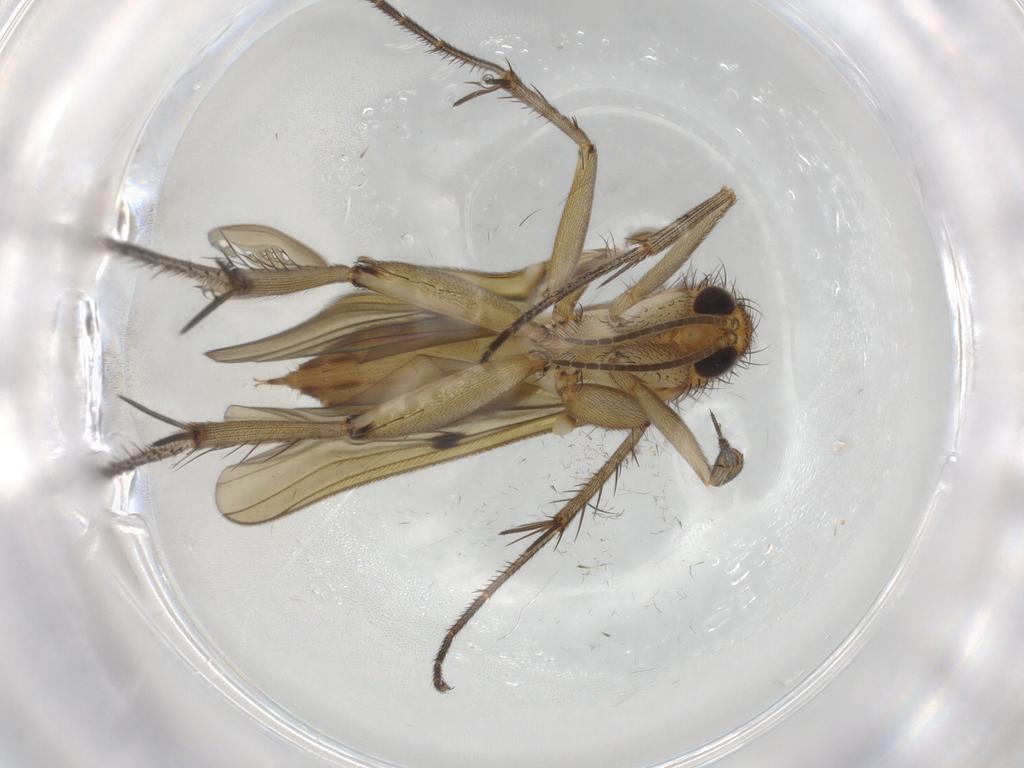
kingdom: Animalia
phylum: Arthropoda
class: Insecta
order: Diptera
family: Mycetophilidae
